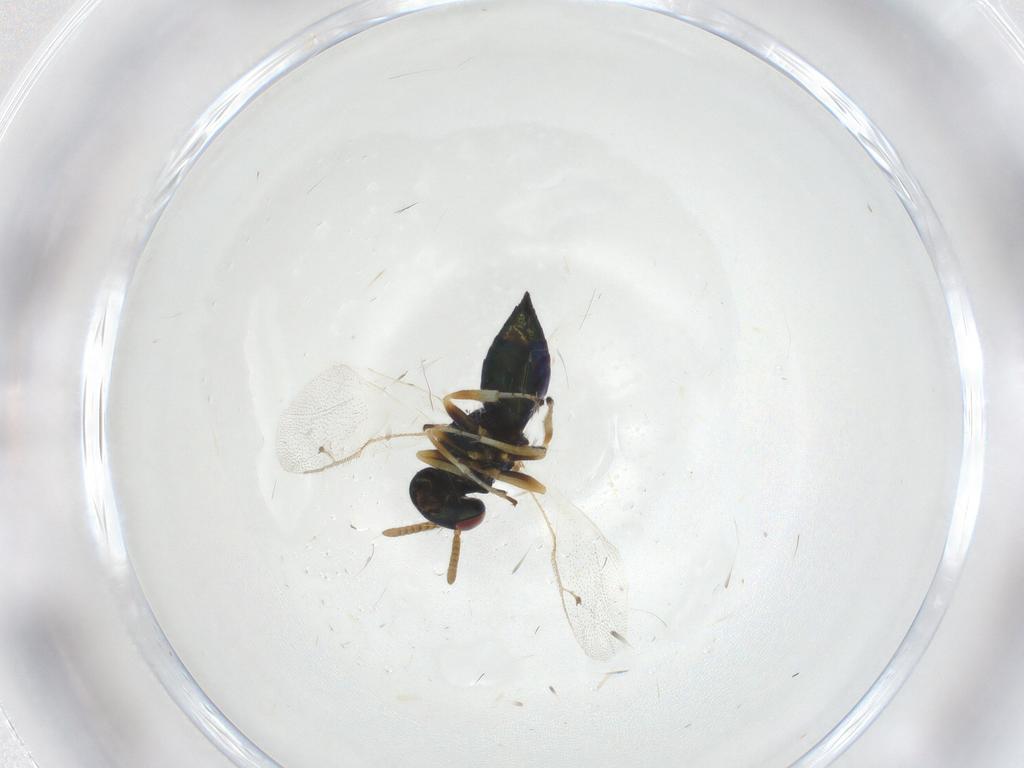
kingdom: Animalia
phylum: Arthropoda
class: Insecta
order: Hymenoptera
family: Pteromalidae
